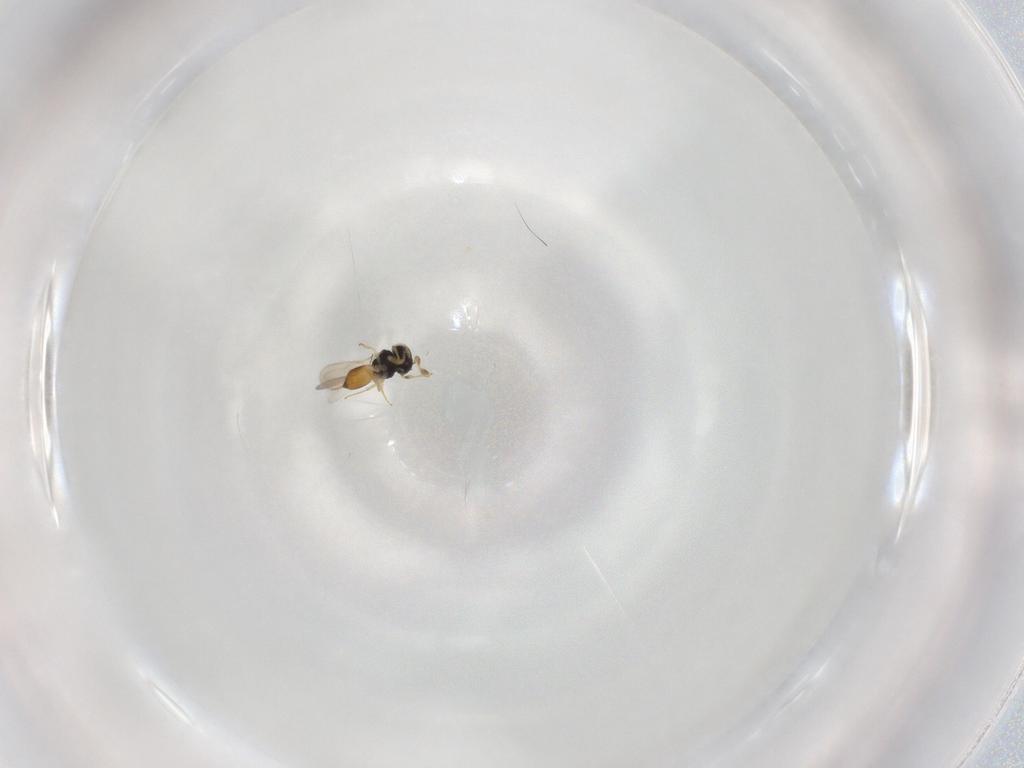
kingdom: Animalia
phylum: Arthropoda
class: Insecta
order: Hymenoptera
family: Scelionidae
